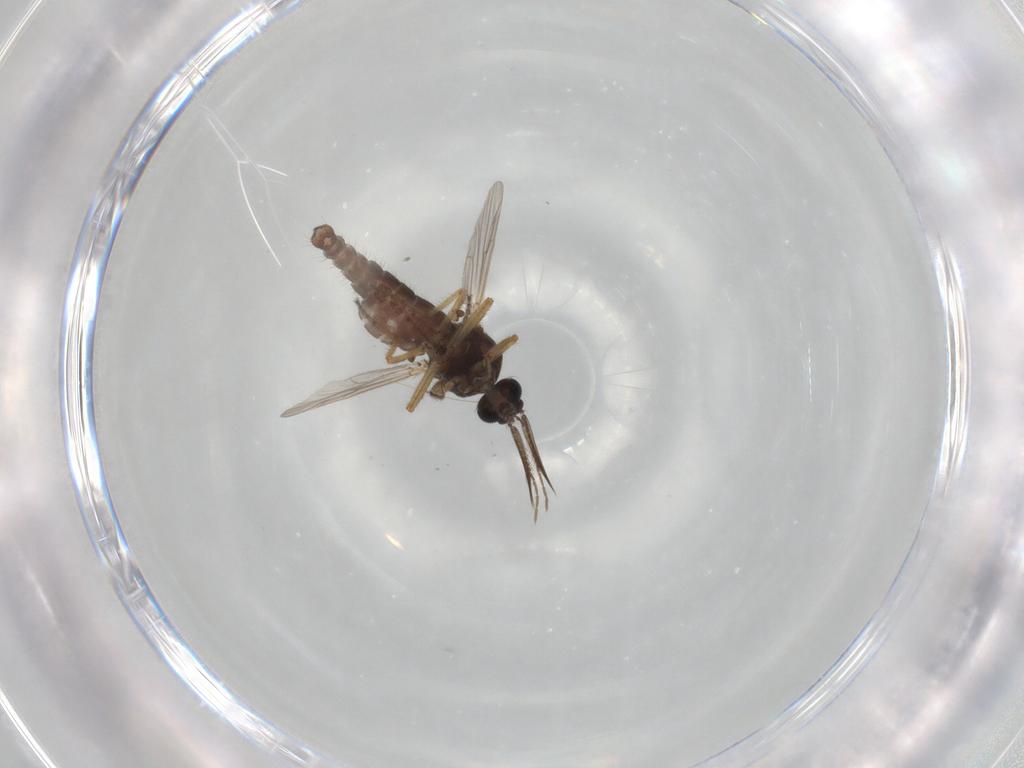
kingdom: Animalia
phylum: Arthropoda
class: Insecta
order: Diptera
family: Ceratopogonidae
